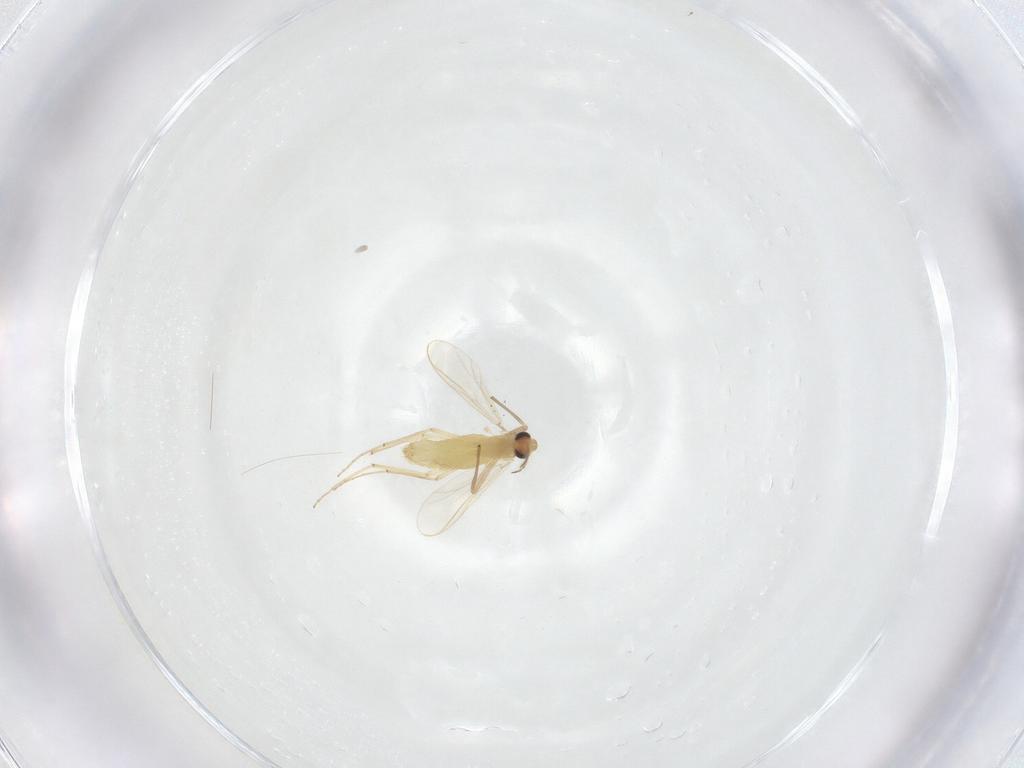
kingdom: Animalia
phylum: Arthropoda
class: Insecta
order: Diptera
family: Chironomidae
